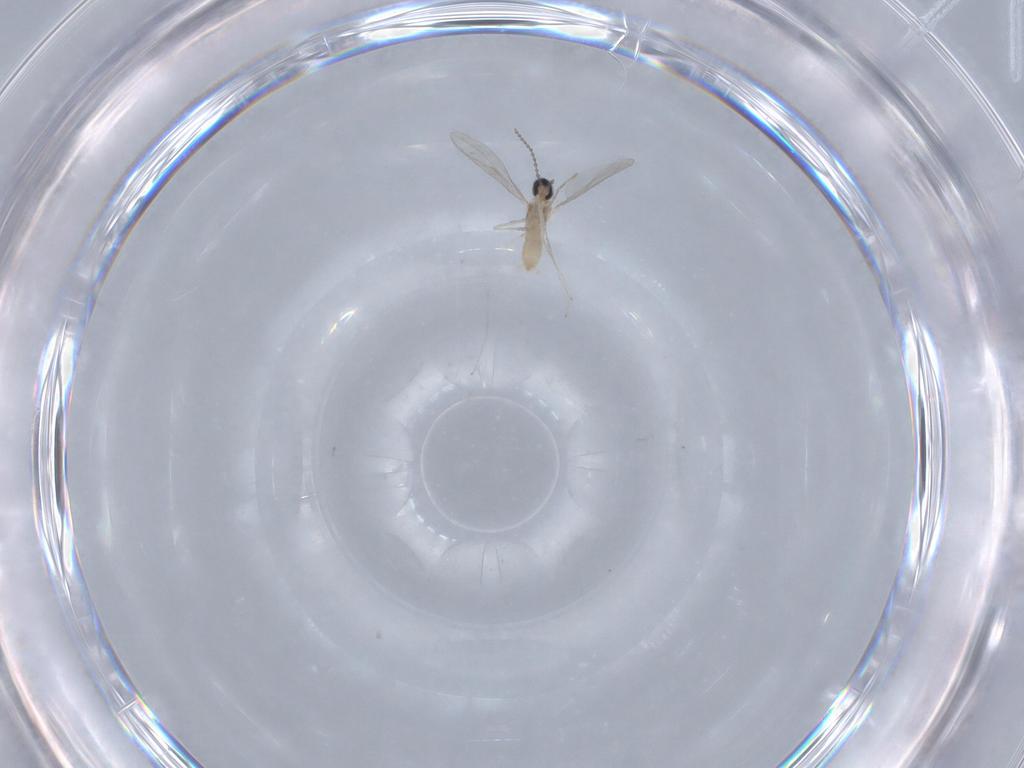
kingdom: Animalia
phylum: Arthropoda
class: Insecta
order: Diptera
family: Cecidomyiidae
